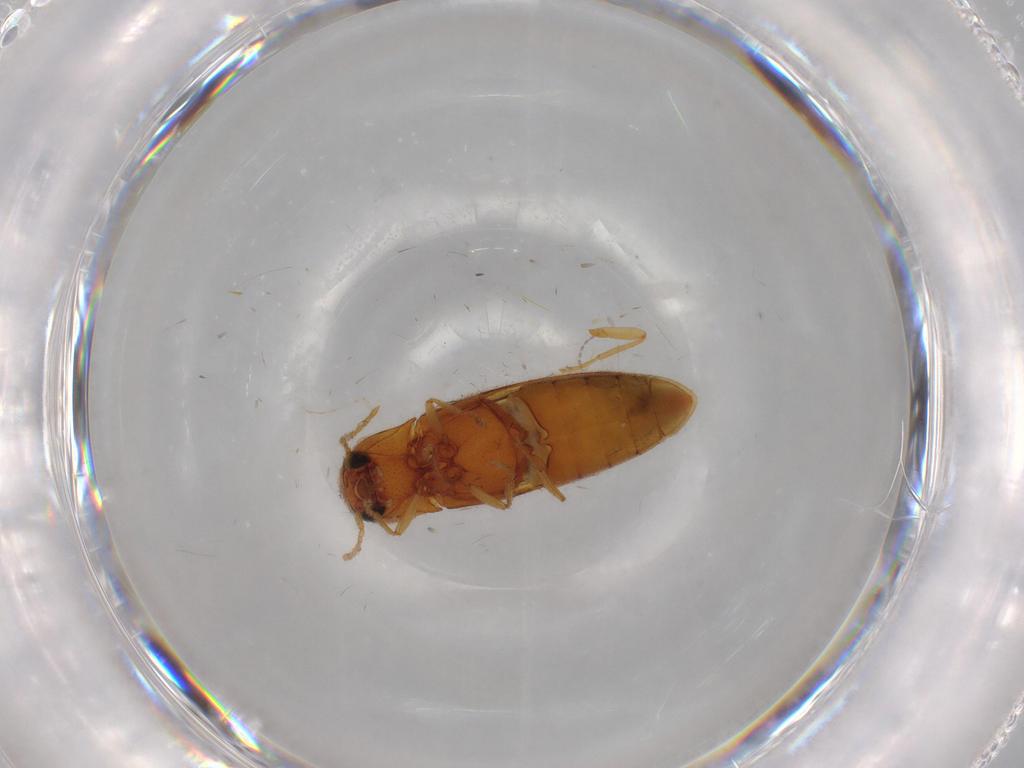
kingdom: Animalia
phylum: Arthropoda
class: Insecta
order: Coleoptera
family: Elateridae
